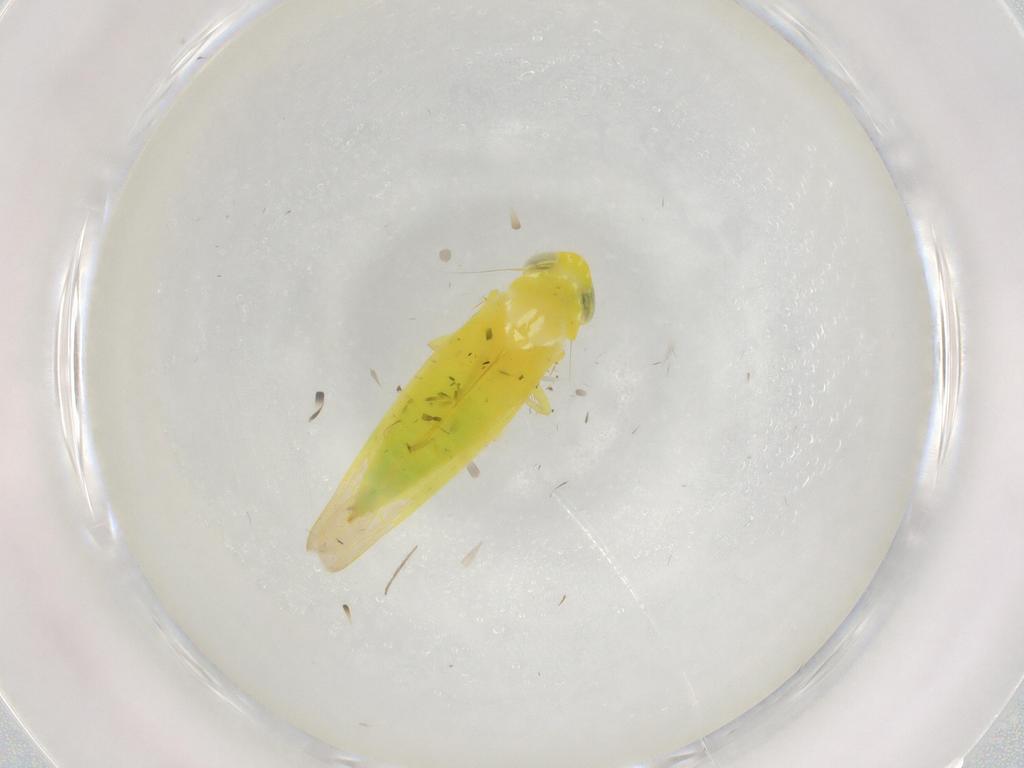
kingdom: Animalia
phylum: Arthropoda
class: Insecta
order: Hemiptera
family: Cicadellidae
